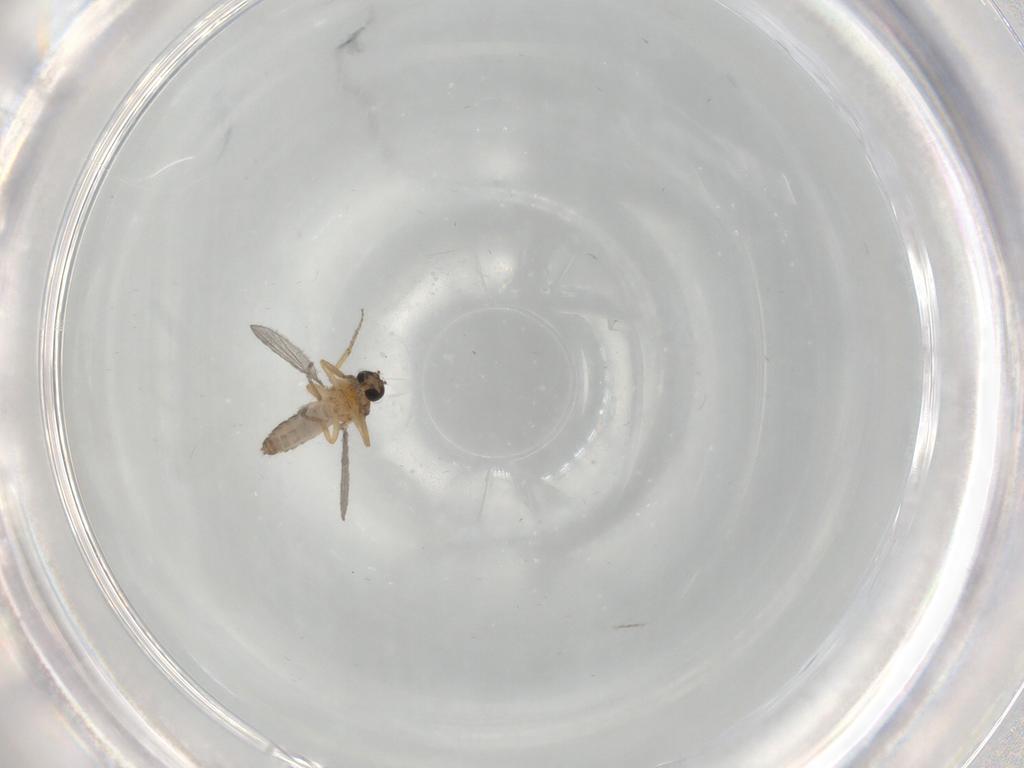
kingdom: Animalia
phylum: Arthropoda
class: Insecta
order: Diptera
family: Ceratopogonidae
